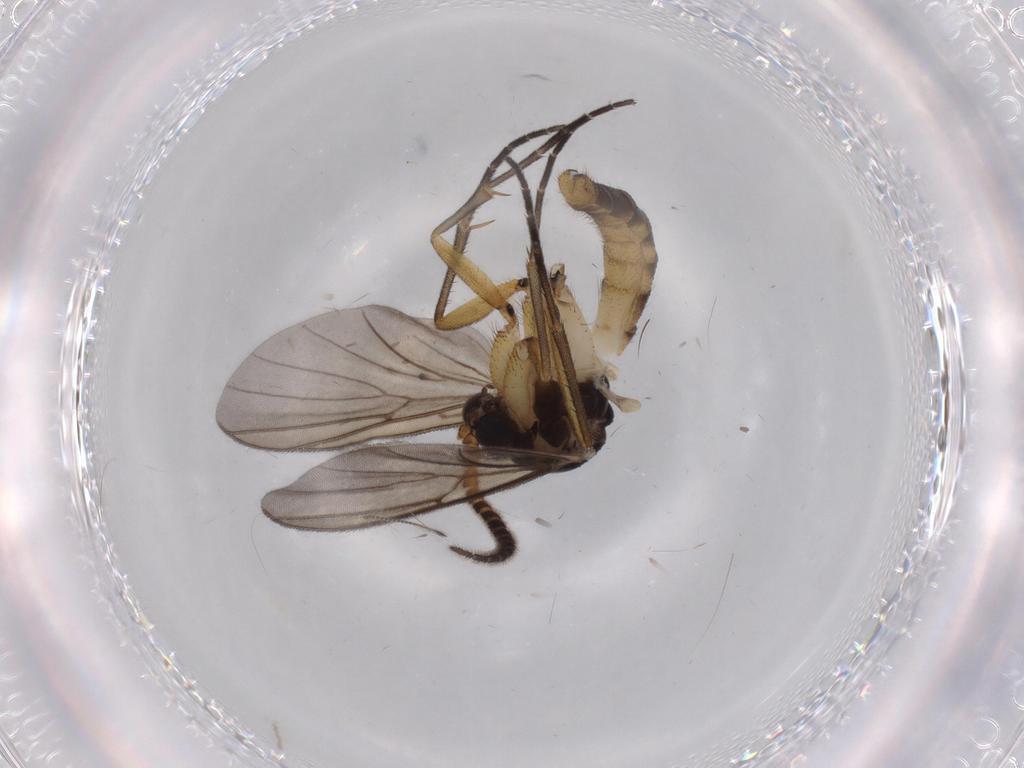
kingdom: Animalia
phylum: Arthropoda
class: Insecta
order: Diptera
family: Cecidomyiidae
